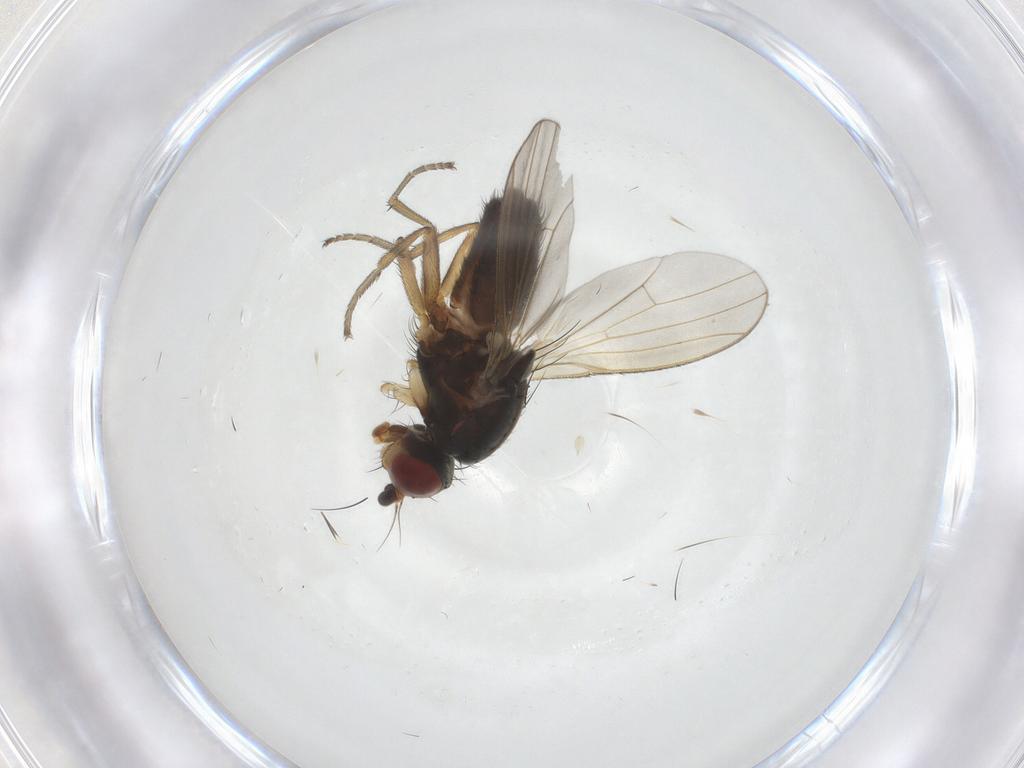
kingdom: Animalia
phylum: Arthropoda
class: Insecta
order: Diptera
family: Heleomyzidae
